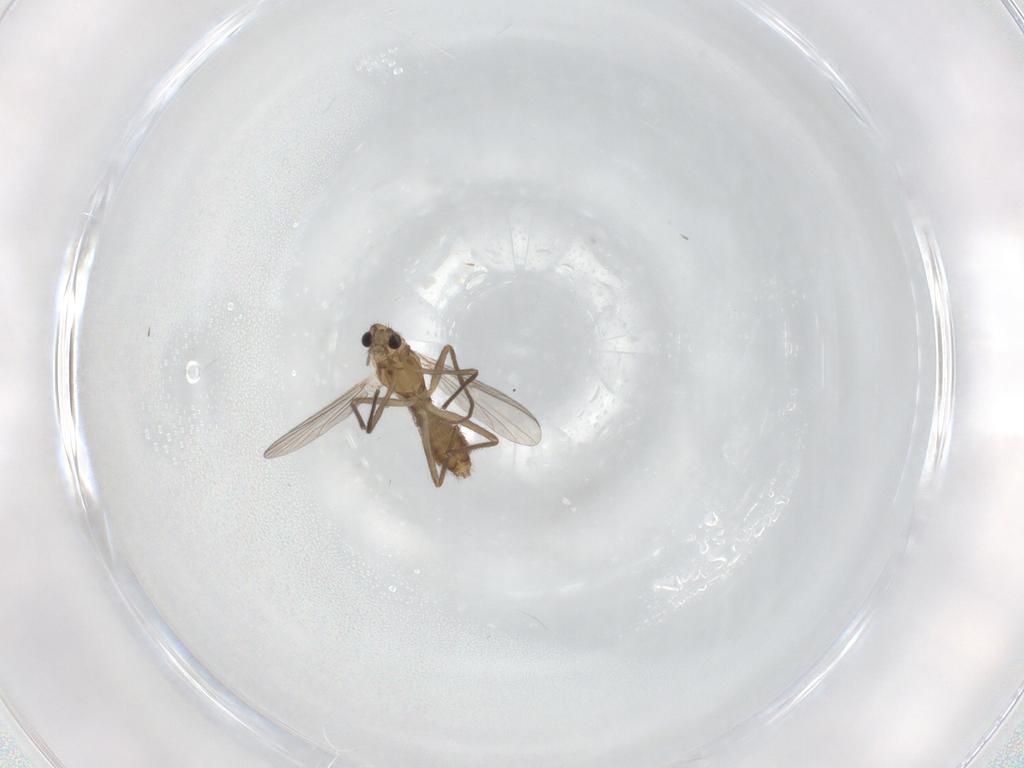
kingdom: Animalia
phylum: Arthropoda
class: Insecta
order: Diptera
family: Chironomidae
